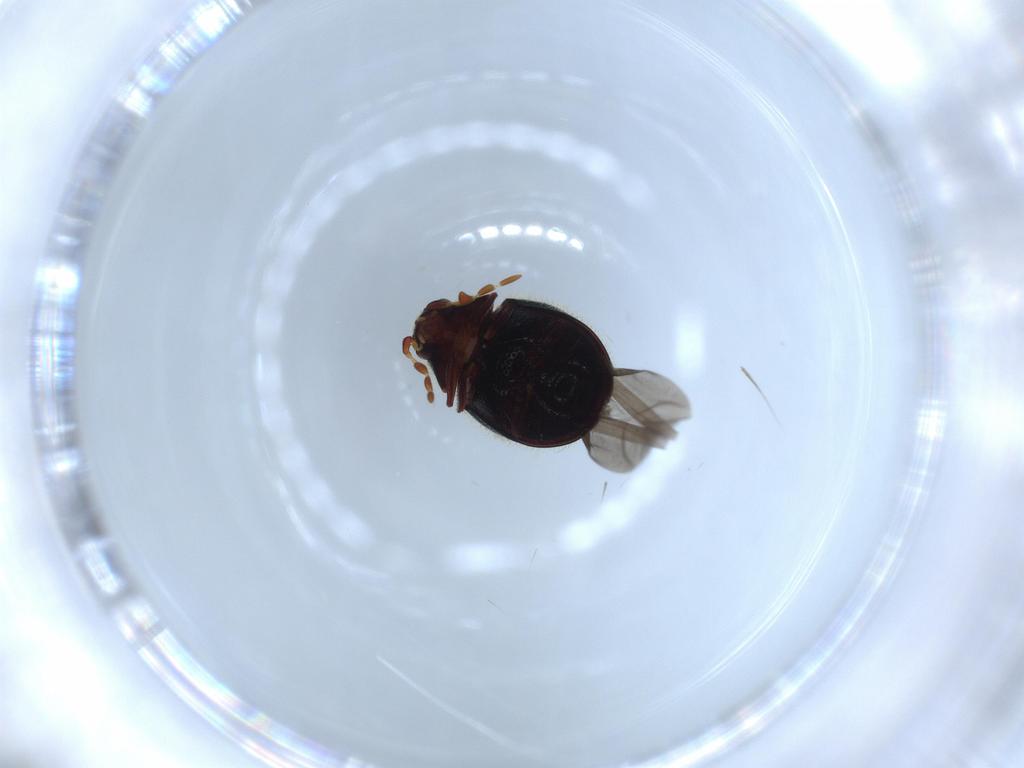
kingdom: Animalia
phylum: Arthropoda
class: Insecta
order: Coleoptera
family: Ptinidae
